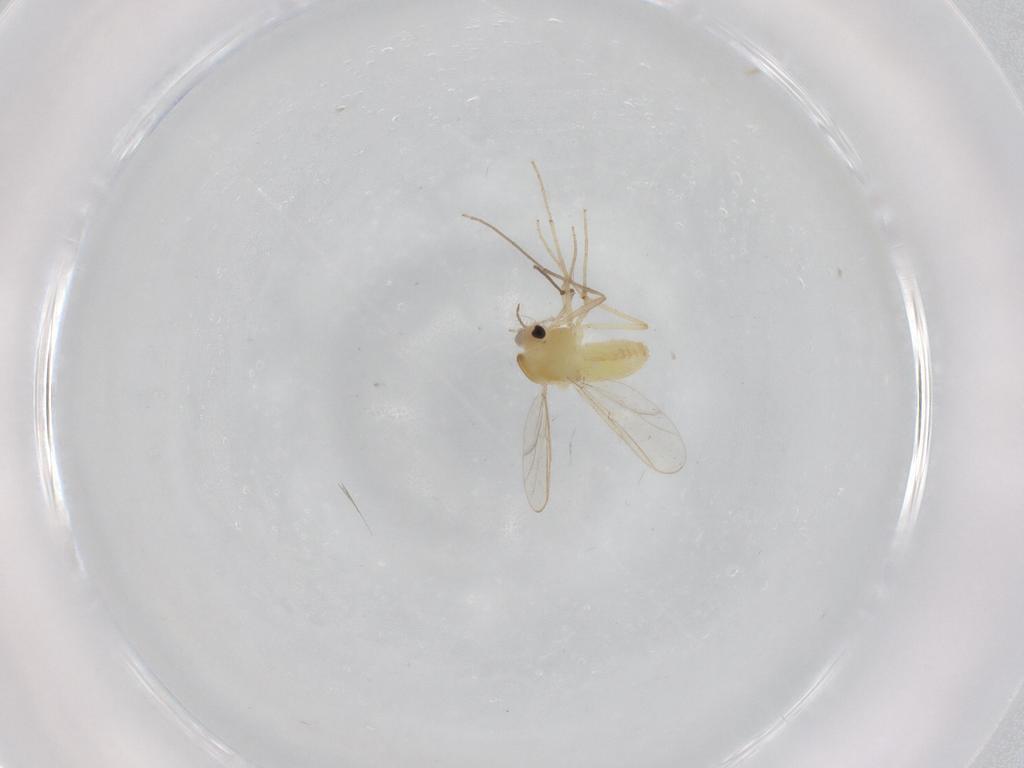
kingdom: Animalia
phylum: Arthropoda
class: Insecta
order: Diptera
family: Chironomidae
